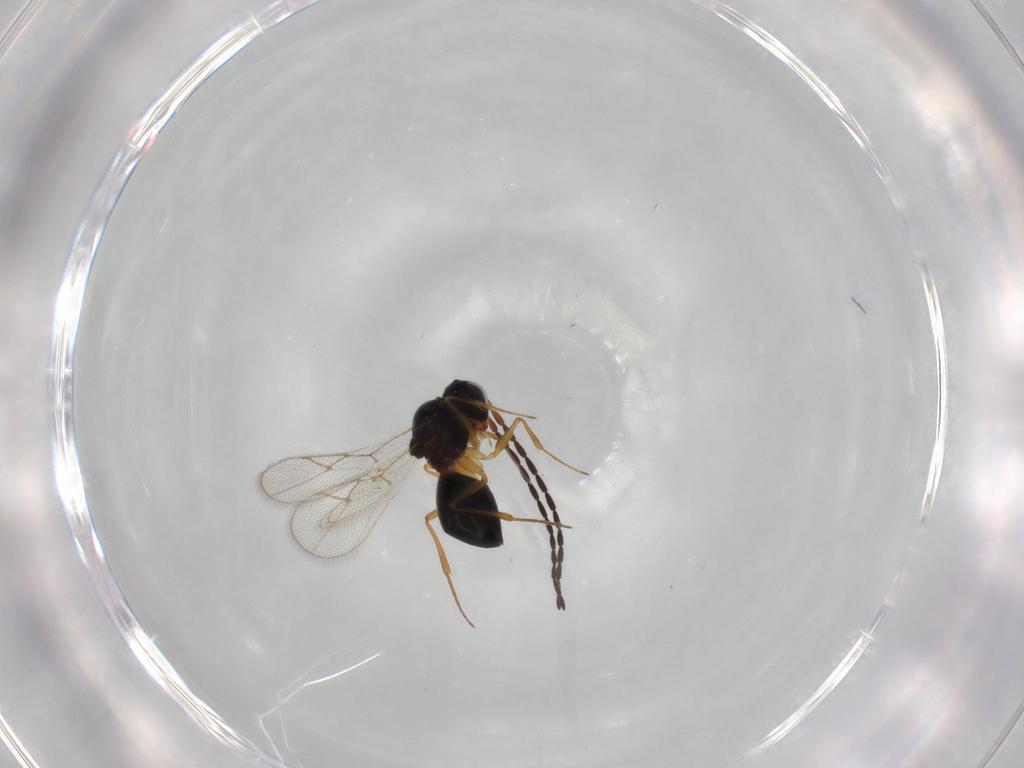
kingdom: Animalia
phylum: Arthropoda
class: Insecta
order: Hymenoptera
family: Figitidae
